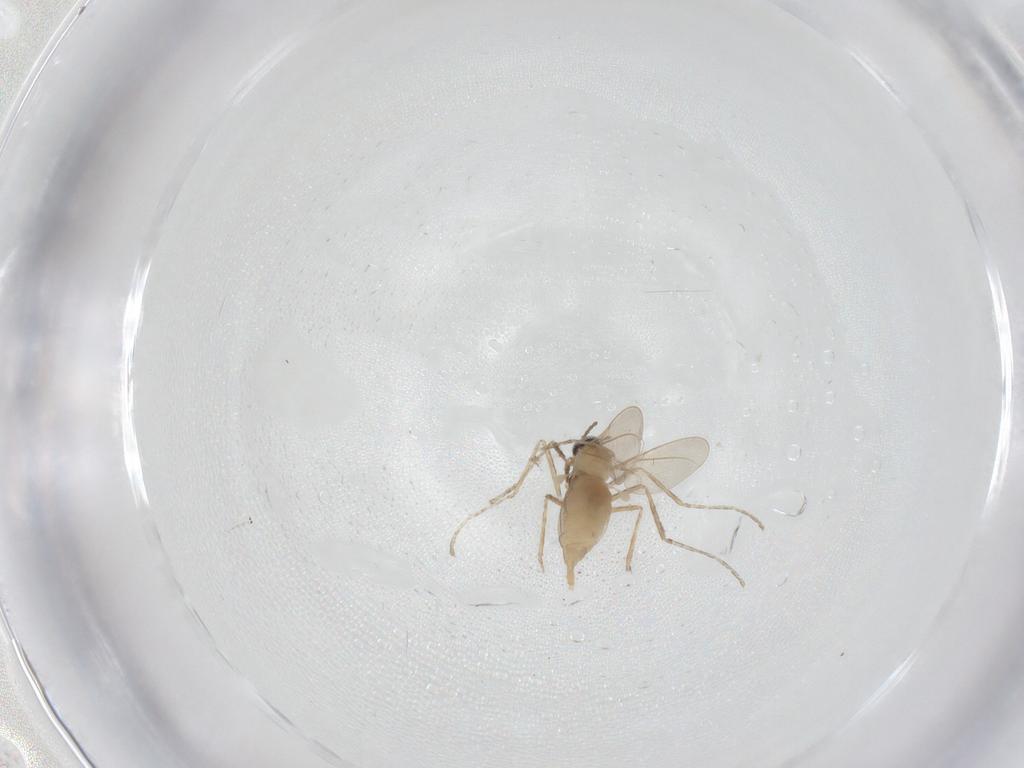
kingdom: Animalia
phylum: Arthropoda
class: Insecta
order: Diptera
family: Cecidomyiidae
